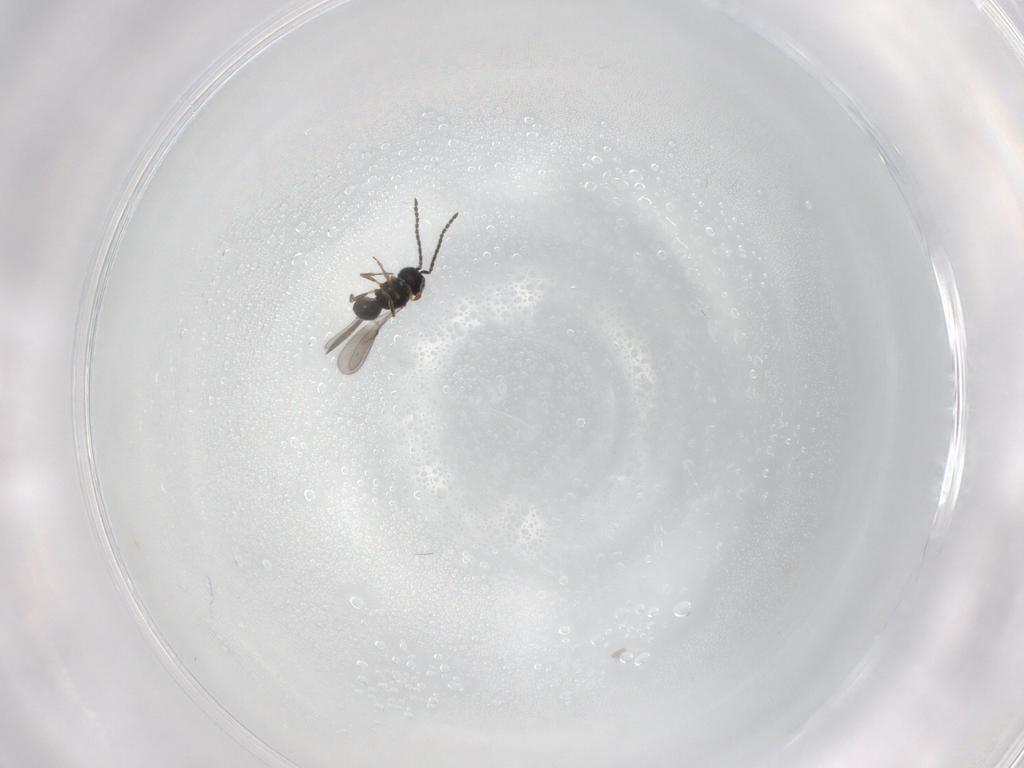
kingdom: Animalia
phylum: Arthropoda
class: Insecta
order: Hymenoptera
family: Scelionidae
